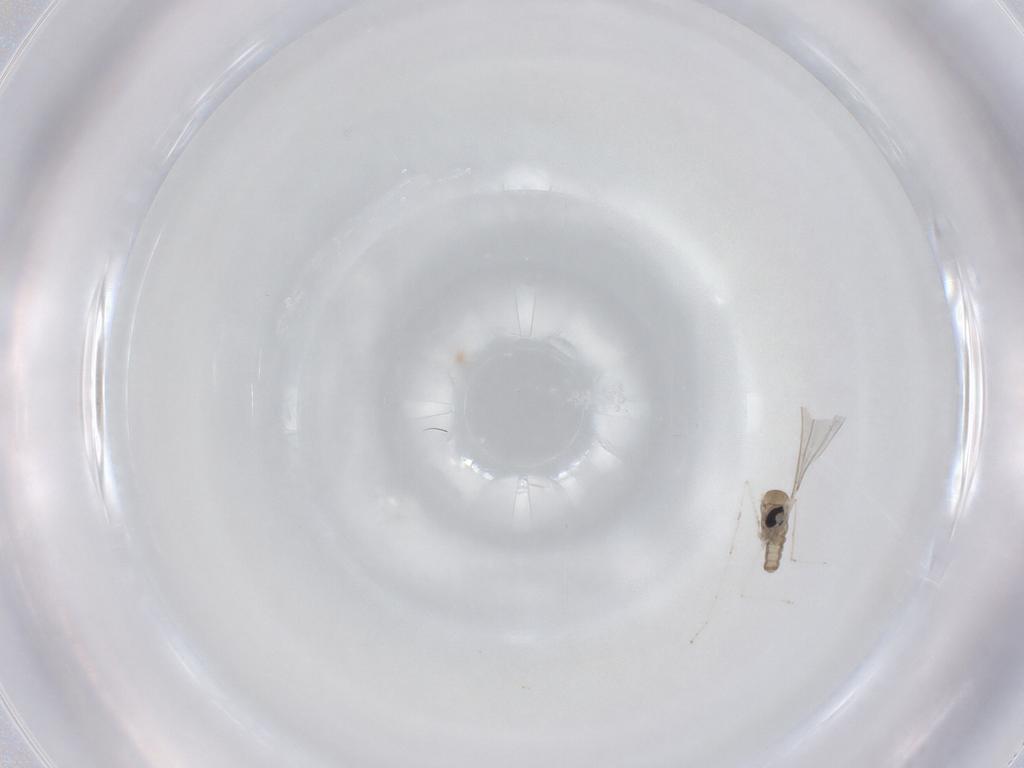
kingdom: Animalia
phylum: Arthropoda
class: Insecta
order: Diptera
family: Cecidomyiidae
